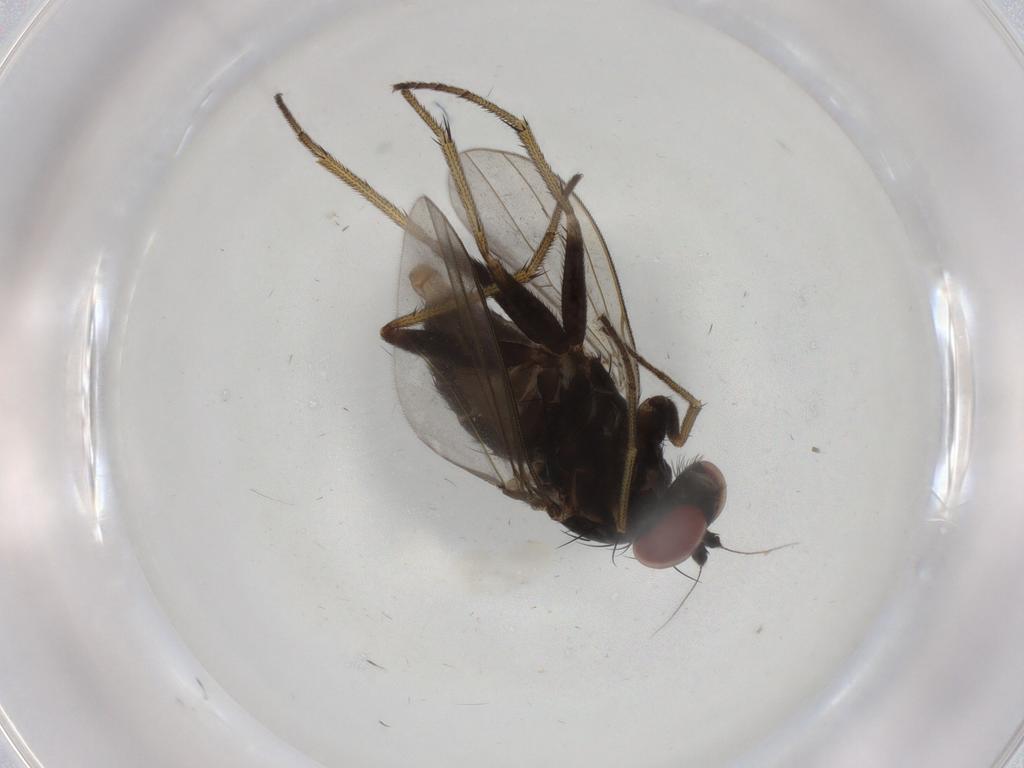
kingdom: Animalia
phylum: Arthropoda
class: Insecta
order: Diptera
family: Dolichopodidae
